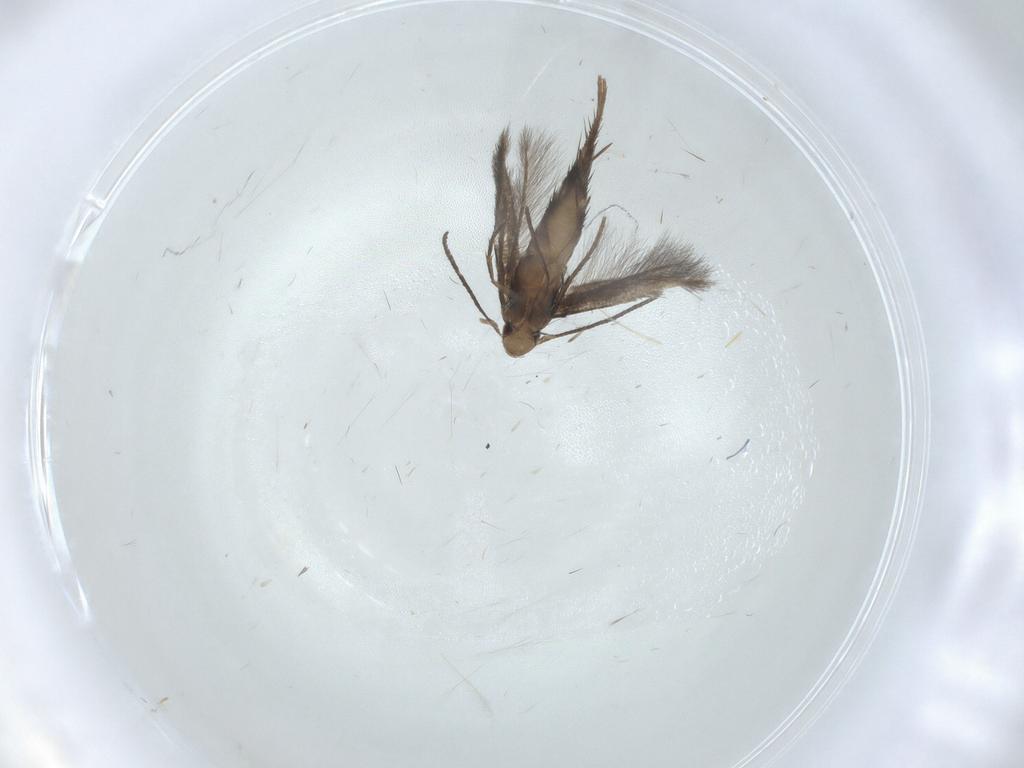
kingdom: Animalia
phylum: Arthropoda
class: Insecta
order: Lepidoptera
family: Gelechiidae
